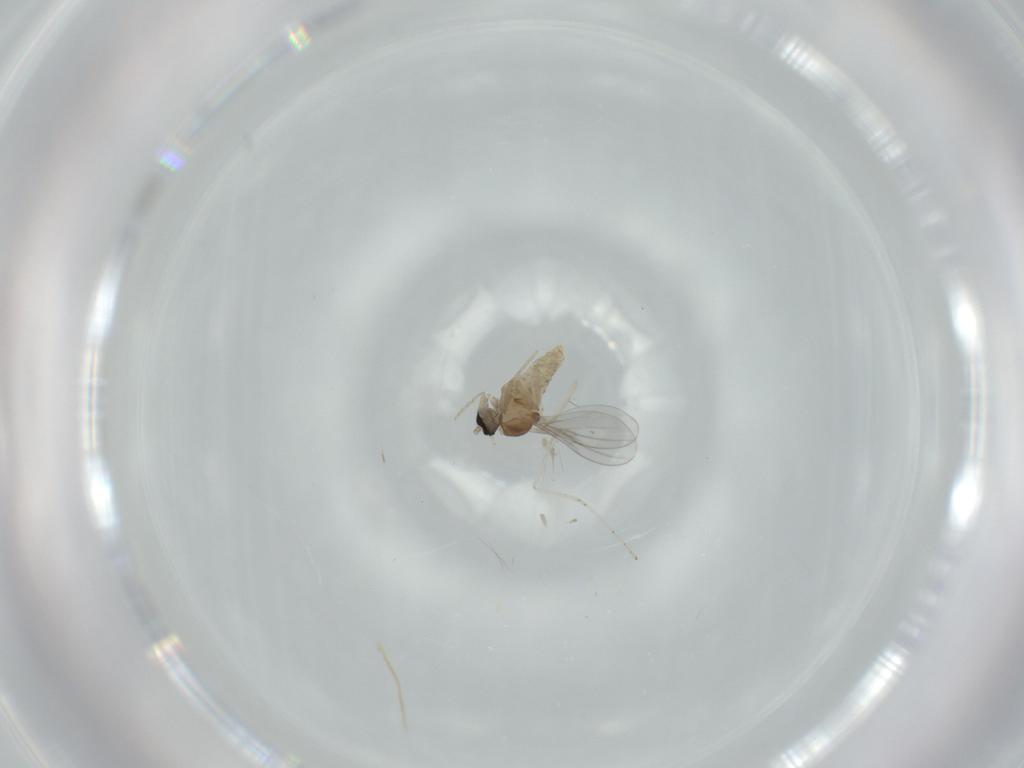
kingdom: Animalia
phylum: Arthropoda
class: Insecta
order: Diptera
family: Cecidomyiidae
